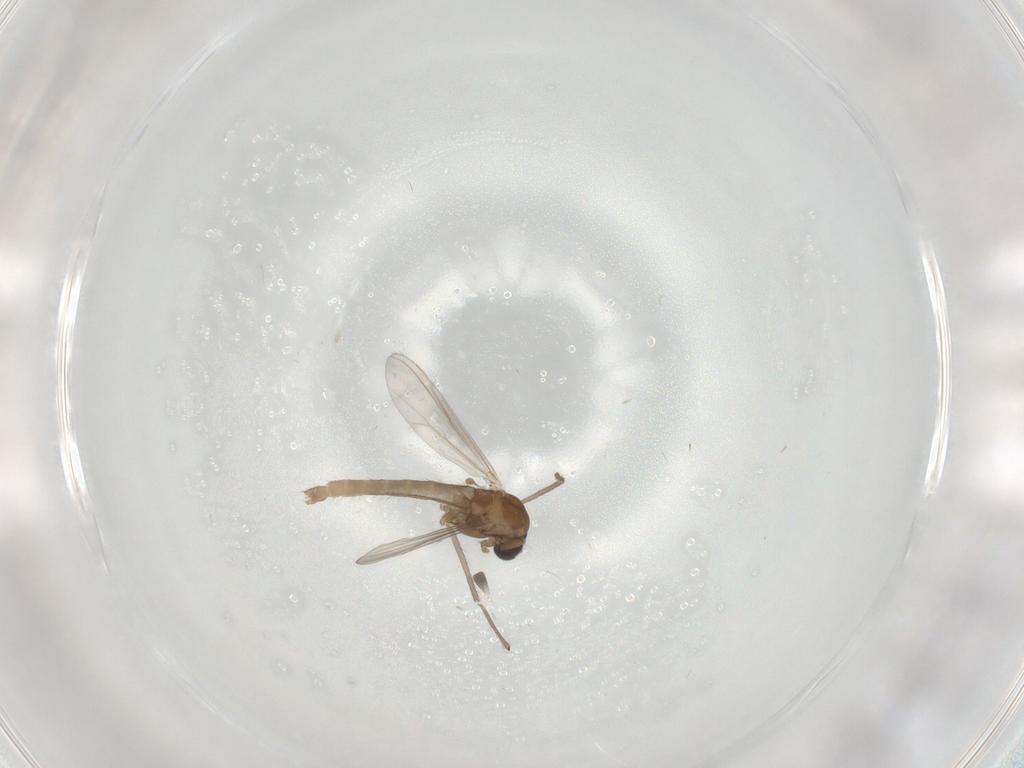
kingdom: Animalia
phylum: Arthropoda
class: Insecta
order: Diptera
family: Chironomidae
